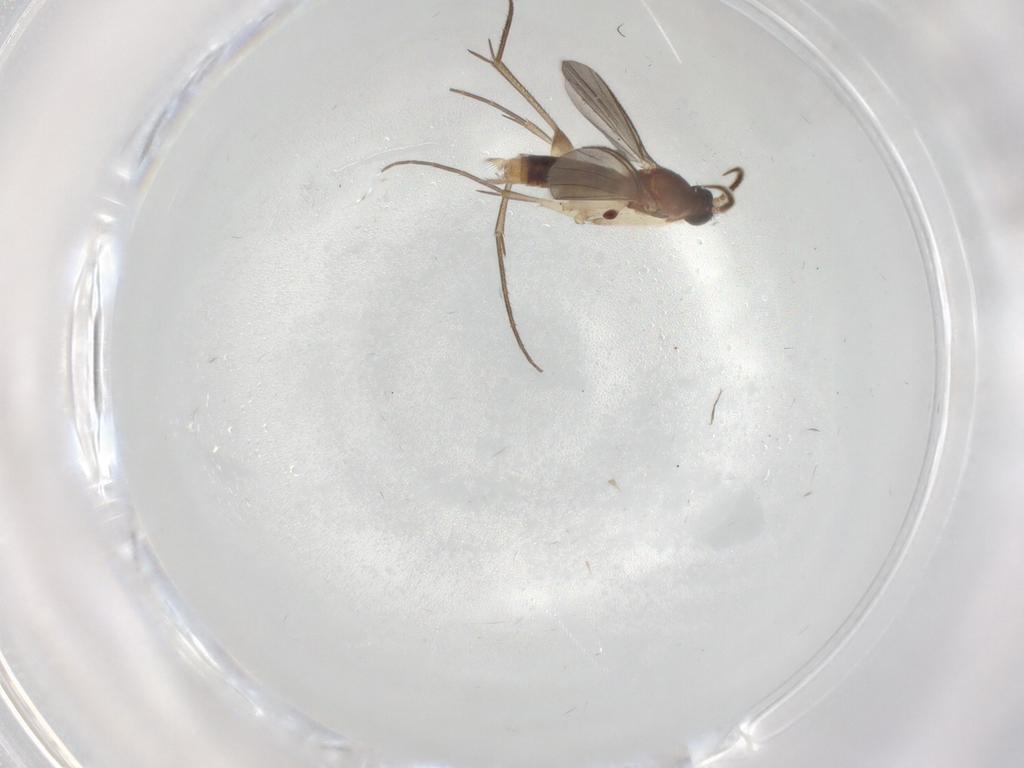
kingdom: Animalia
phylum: Arthropoda
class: Insecta
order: Diptera
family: Mycetophilidae
